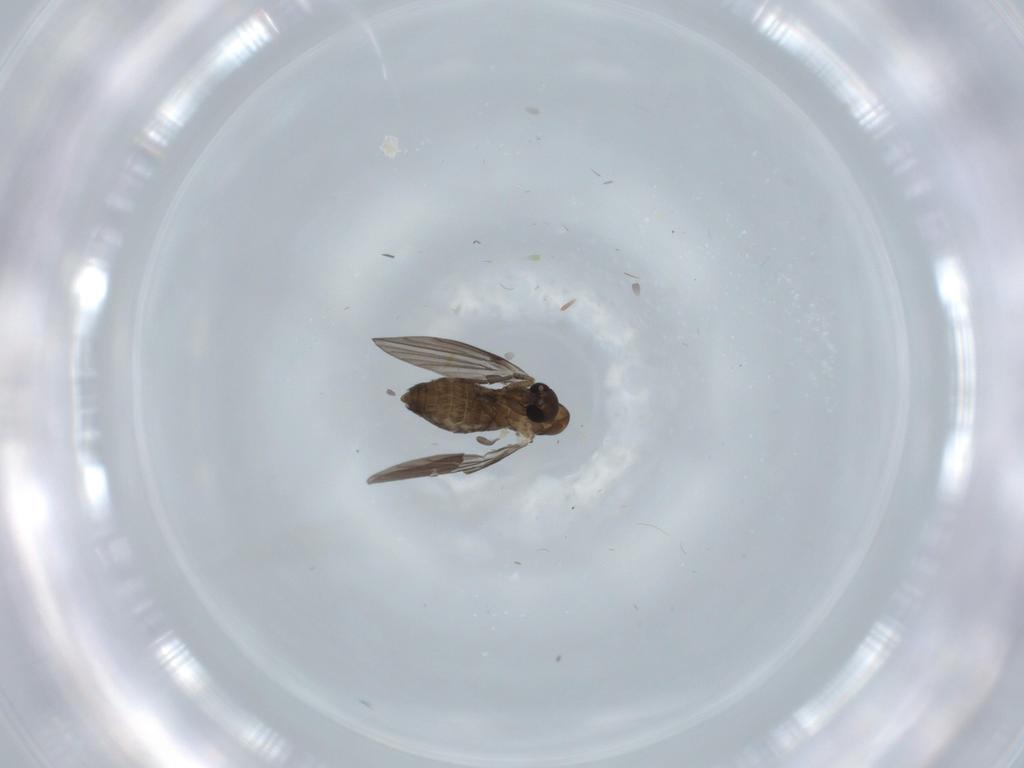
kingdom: Animalia
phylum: Arthropoda
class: Insecta
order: Diptera
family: Psychodidae
